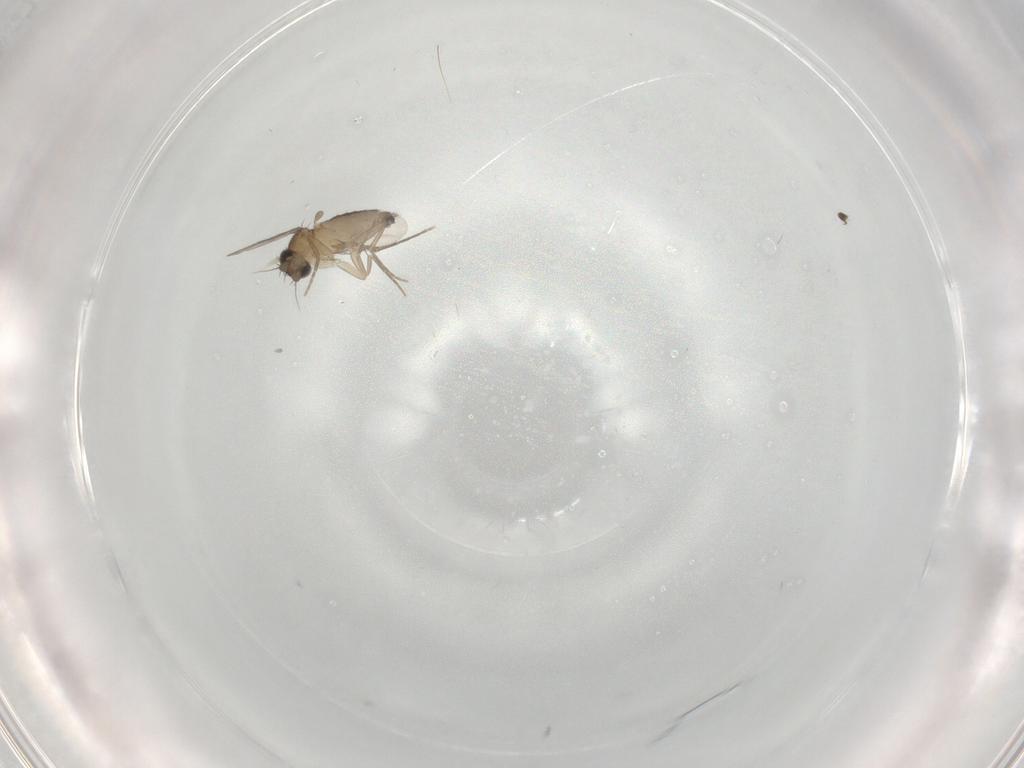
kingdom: Animalia
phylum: Arthropoda
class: Insecta
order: Diptera
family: Phoridae
